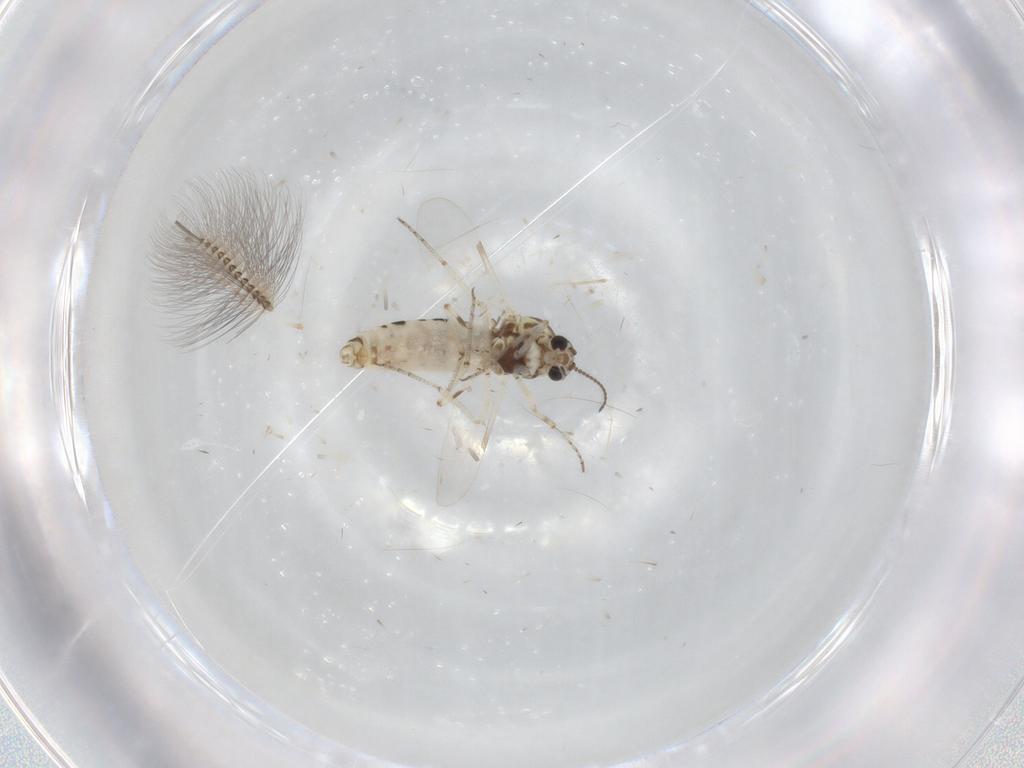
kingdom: Animalia
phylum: Arthropoda
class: Insecta
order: Diptera
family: Ceratopogonidae
